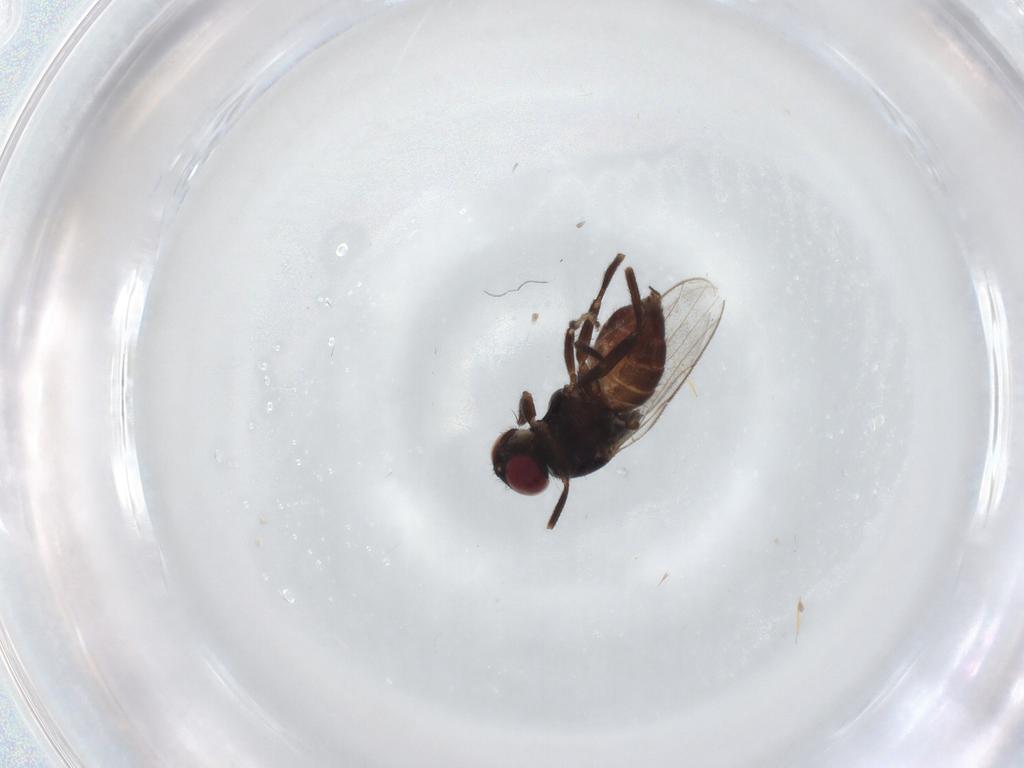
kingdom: Animalia
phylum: Arthropoda
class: Insecta
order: Diptera
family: Chloropidae
